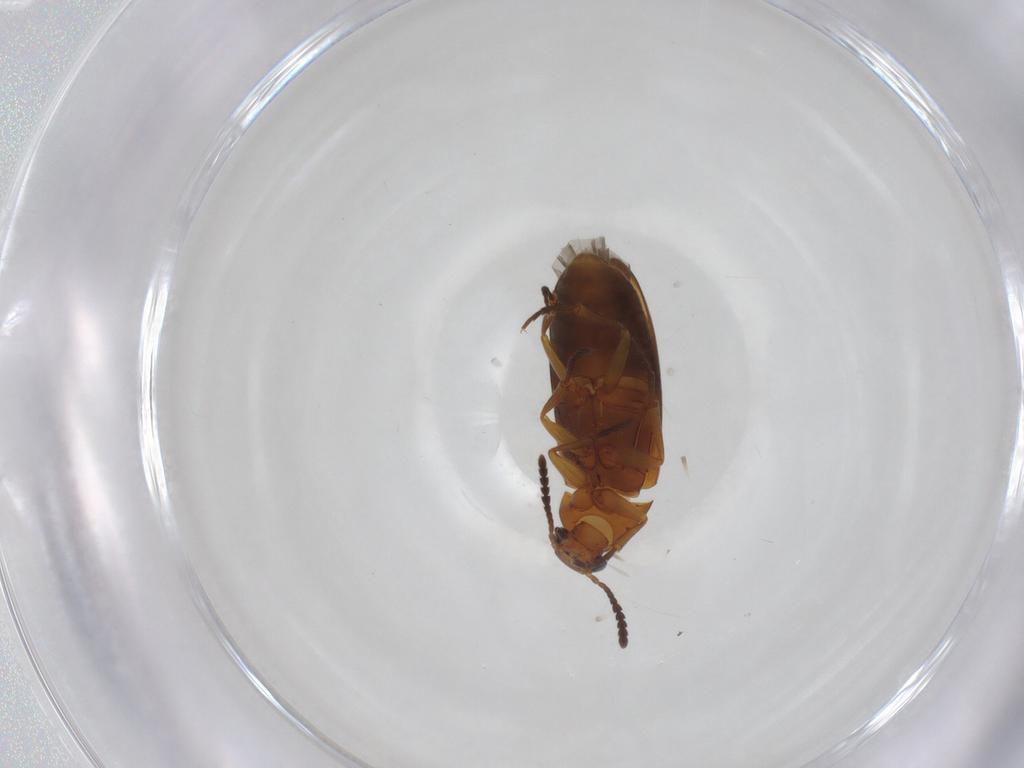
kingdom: Animalia
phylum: Arthropoda
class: Insecta
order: Coleoptera
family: Scraptiidae
